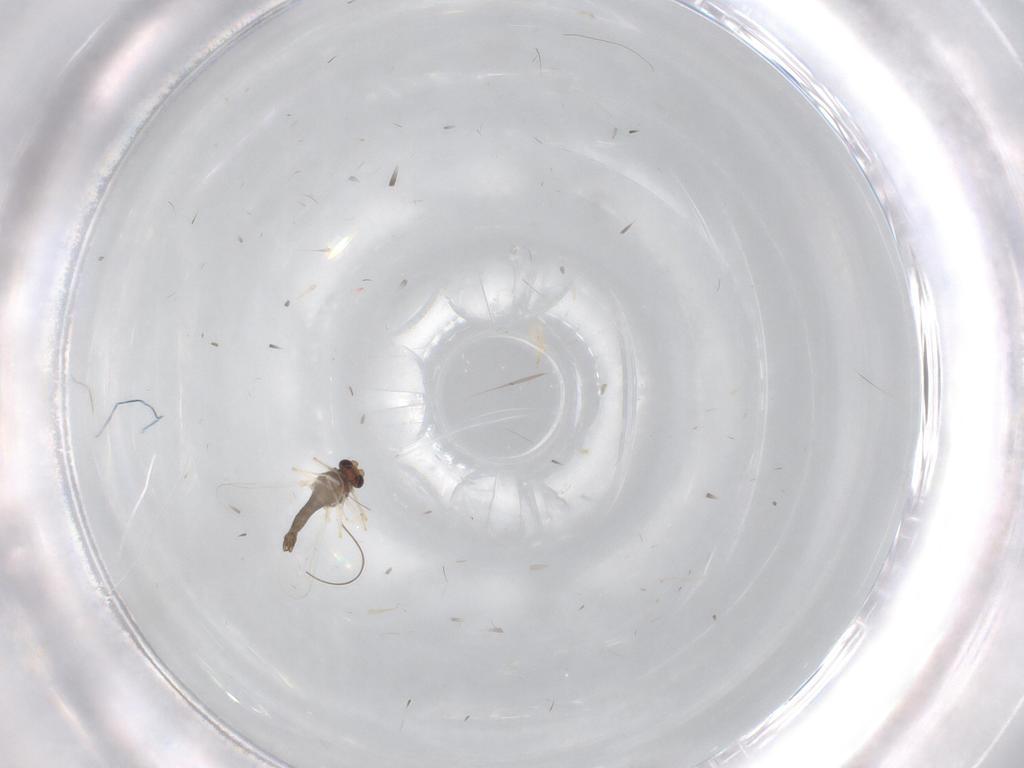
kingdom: Animalia
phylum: Arthropoda
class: Insecta
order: Diptera
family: Chironomidae
